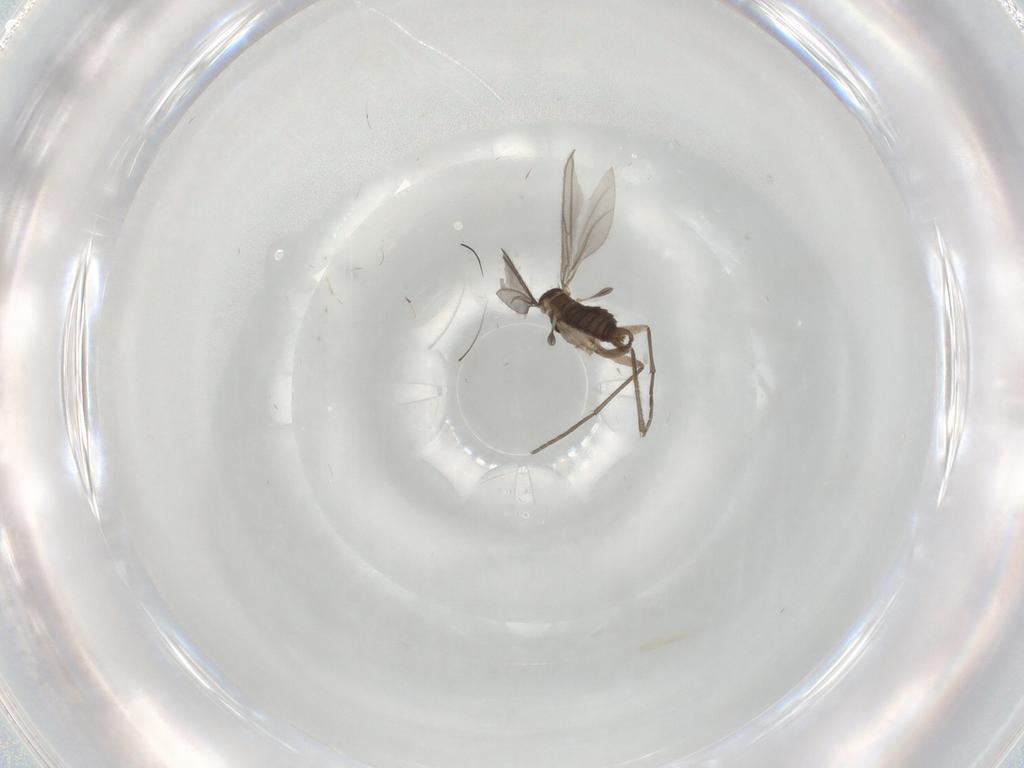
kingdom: Animalia
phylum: Arthropoda
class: Insecta
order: Diptera
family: Sciaridae
